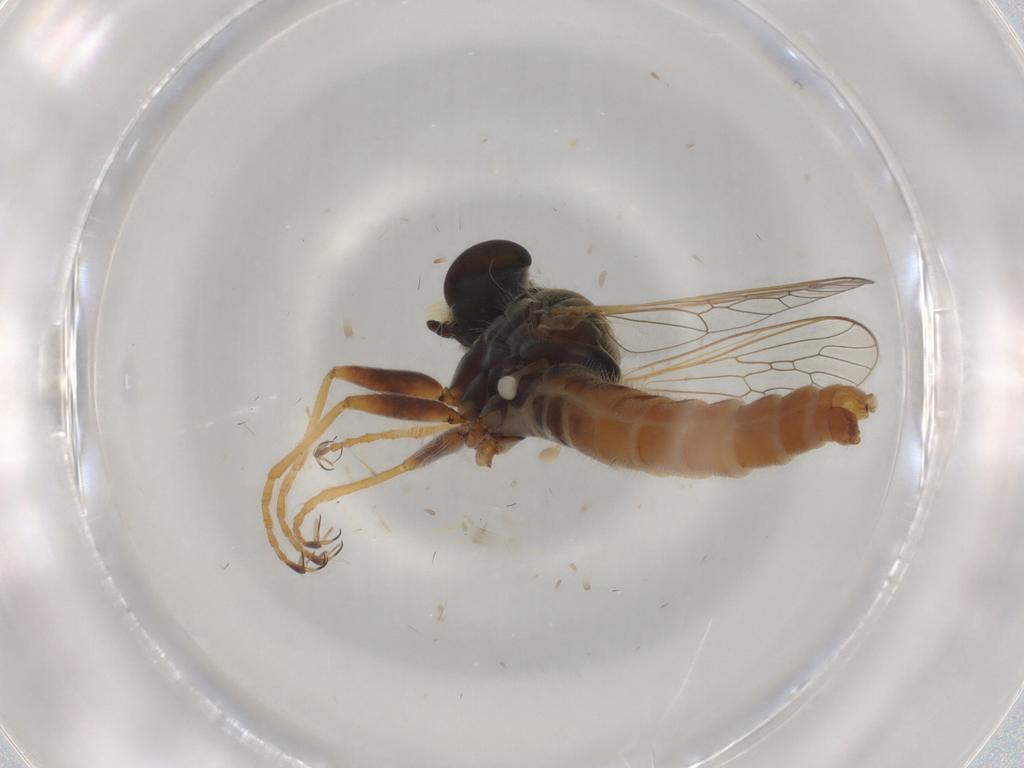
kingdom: Animalia
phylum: Arthropoda
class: Insecta
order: Diptera
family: Asilidae
